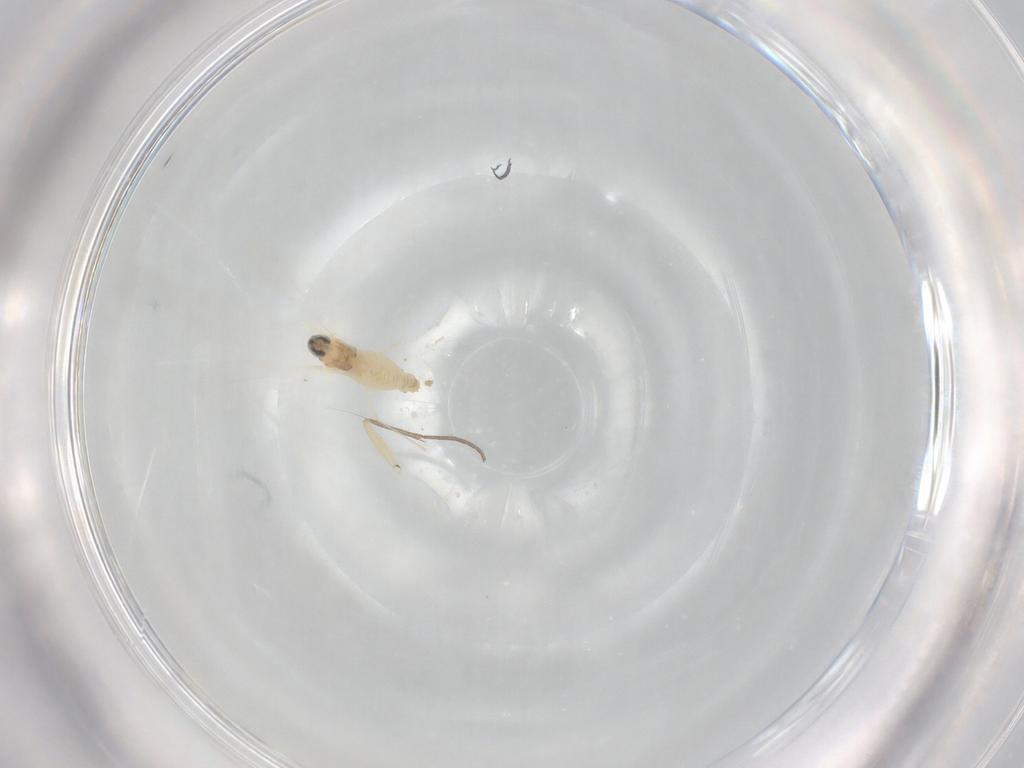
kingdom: Animalia
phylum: Arthropoda
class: Insecta
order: Diptera
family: Cecidomyiidae
